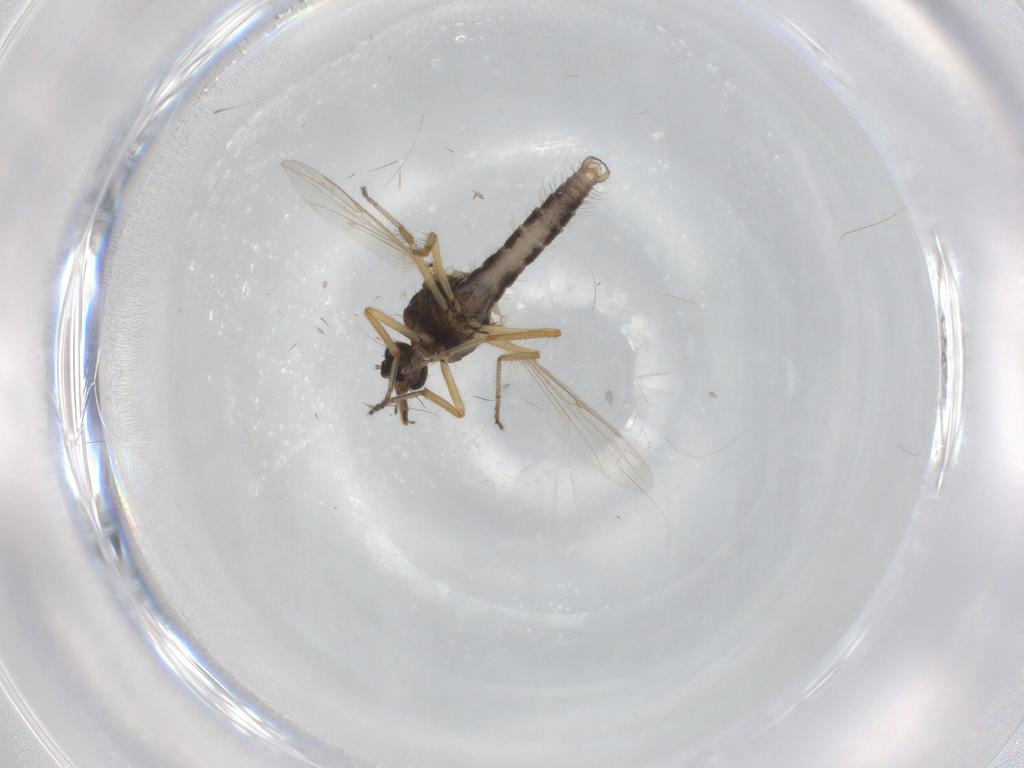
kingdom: Animalia
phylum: Arthropoda
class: Insecta
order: Diptera
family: Ceratopogonidae
